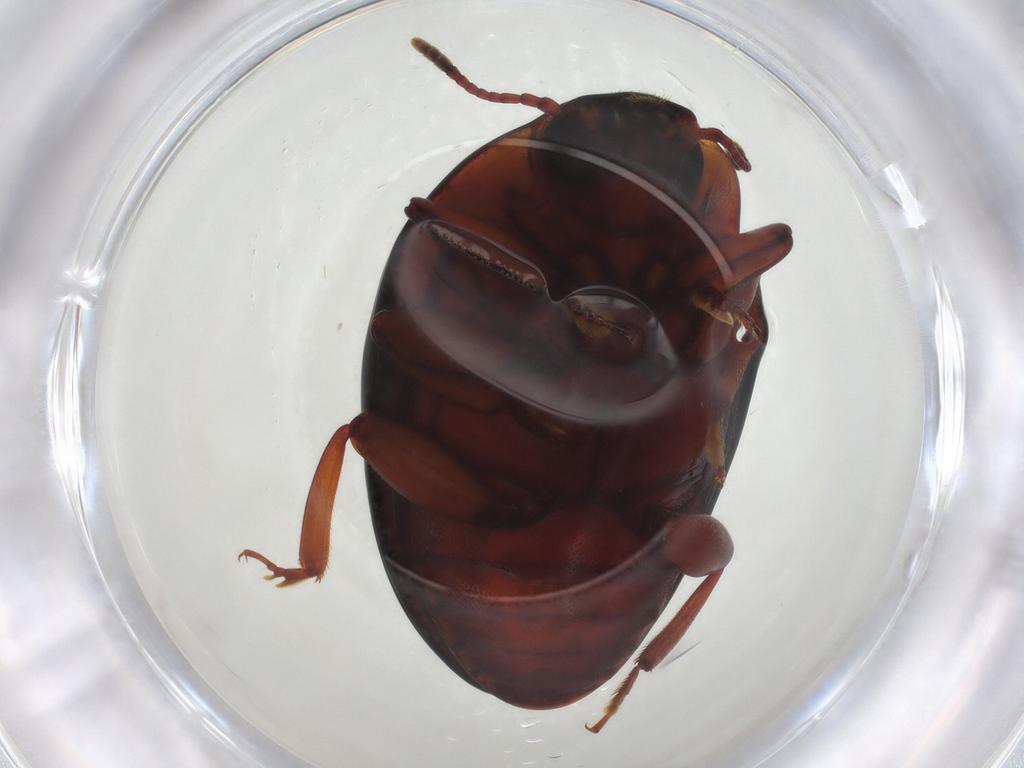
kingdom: Animalia
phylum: Arthropoda
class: Insecta
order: Coleoptera
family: Zopheridae
